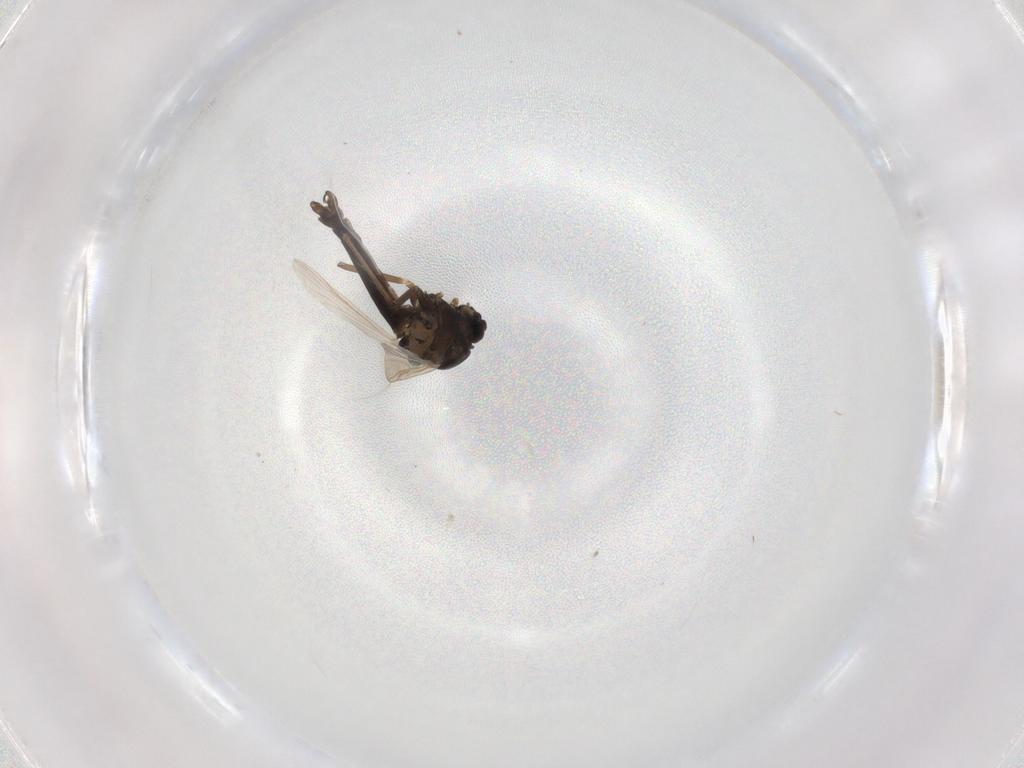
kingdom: Animalia
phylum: Arthropoda
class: Insecta
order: Diptera
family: Chironomidae
